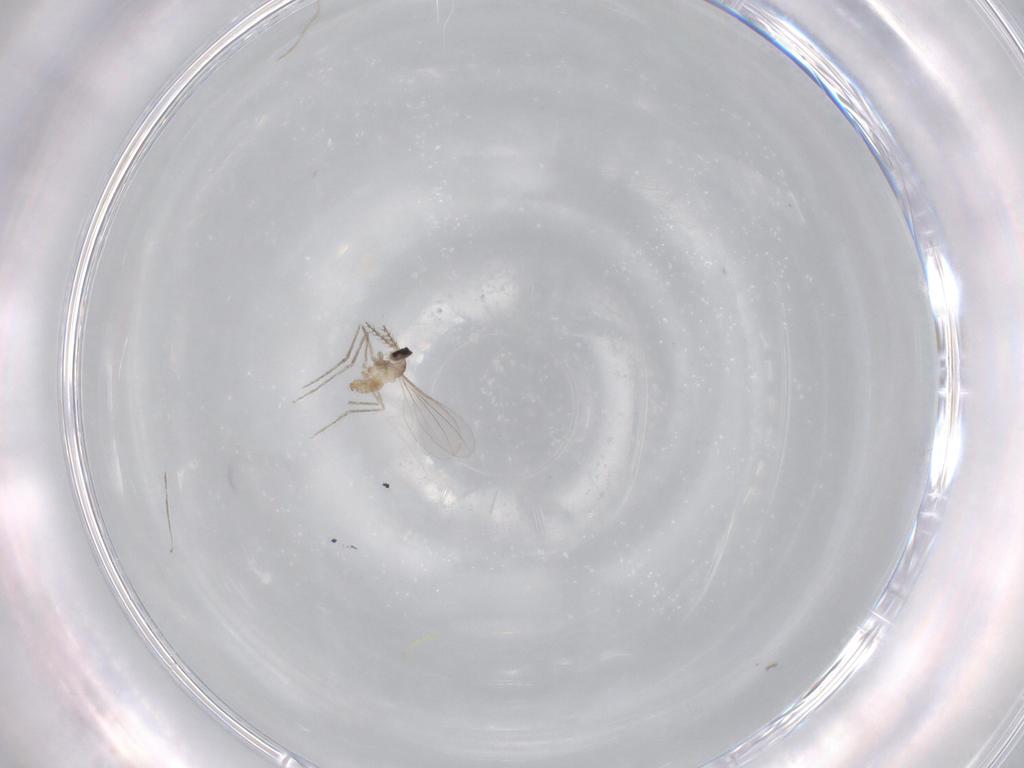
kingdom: Animalia
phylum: Arthropoda
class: Insecta
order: Diptera
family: Cecidomyiidae
